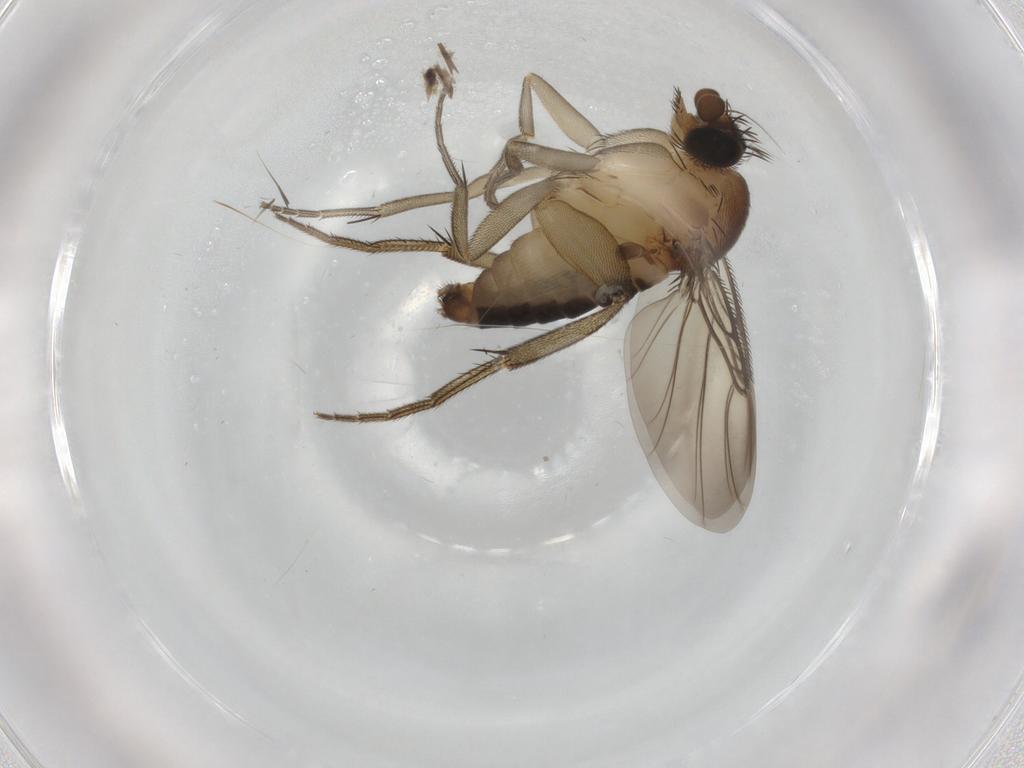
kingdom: Animalia
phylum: Arthropoda
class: Insecta
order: Diptera
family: Phoridae
